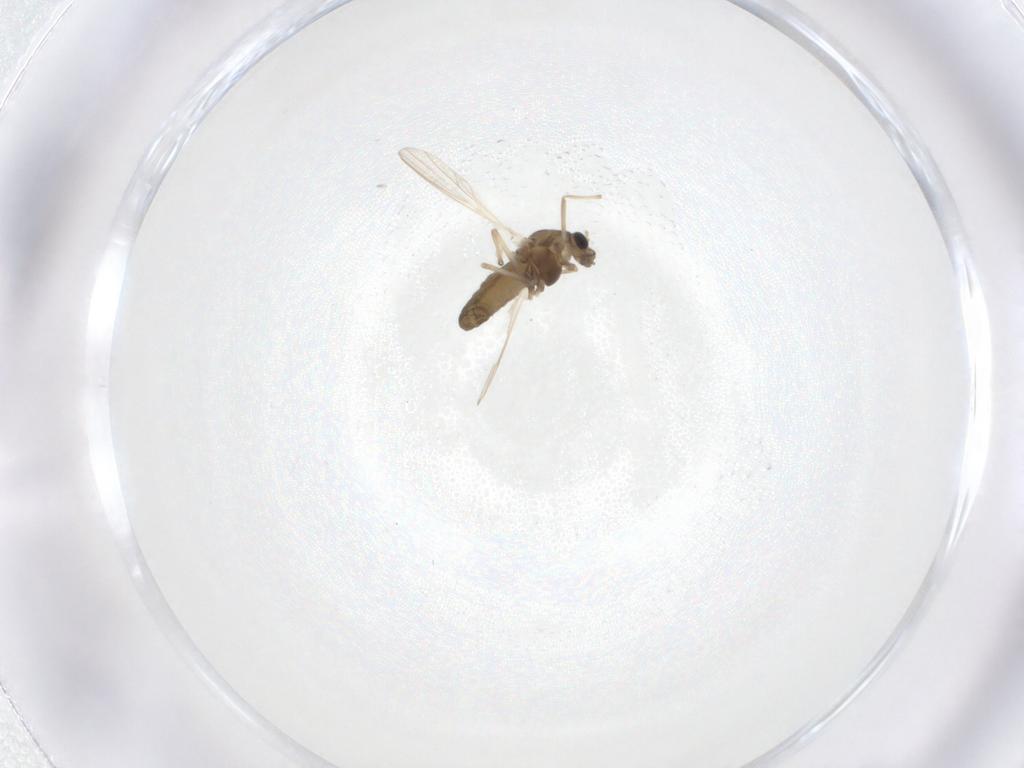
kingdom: Animalia
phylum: Arthropoda
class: Insecta
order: Diptera
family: Chironomidae
